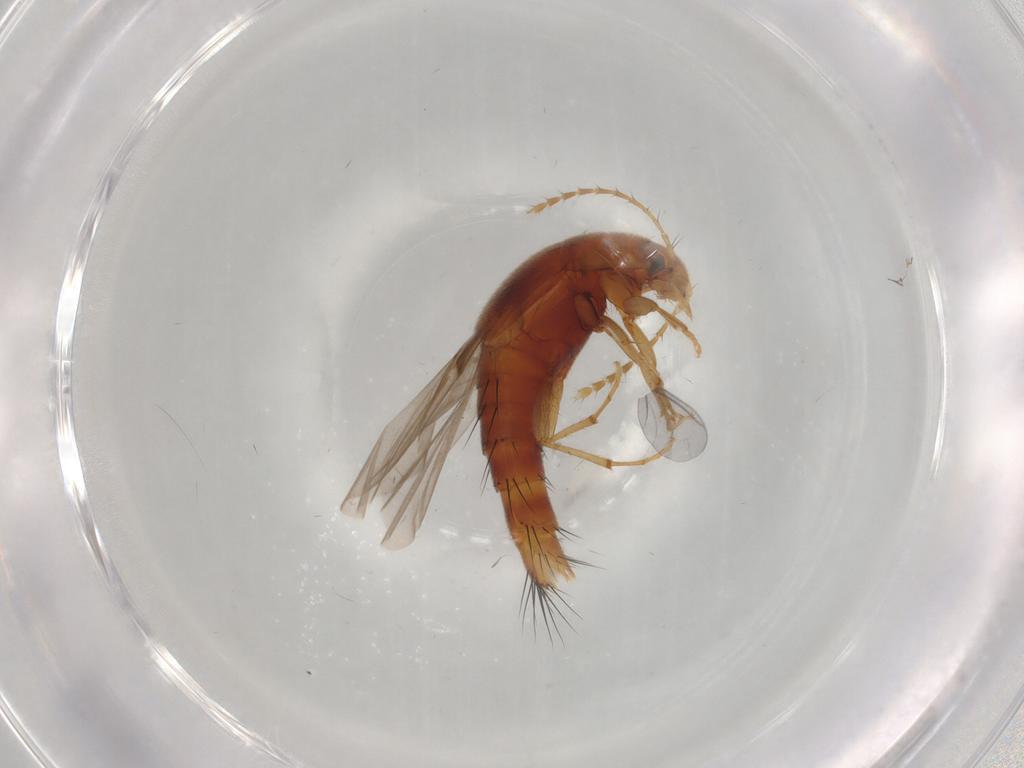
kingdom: Animalia
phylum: Arthropoda
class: Insecta
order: Coleoptera
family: Staphylinidae
